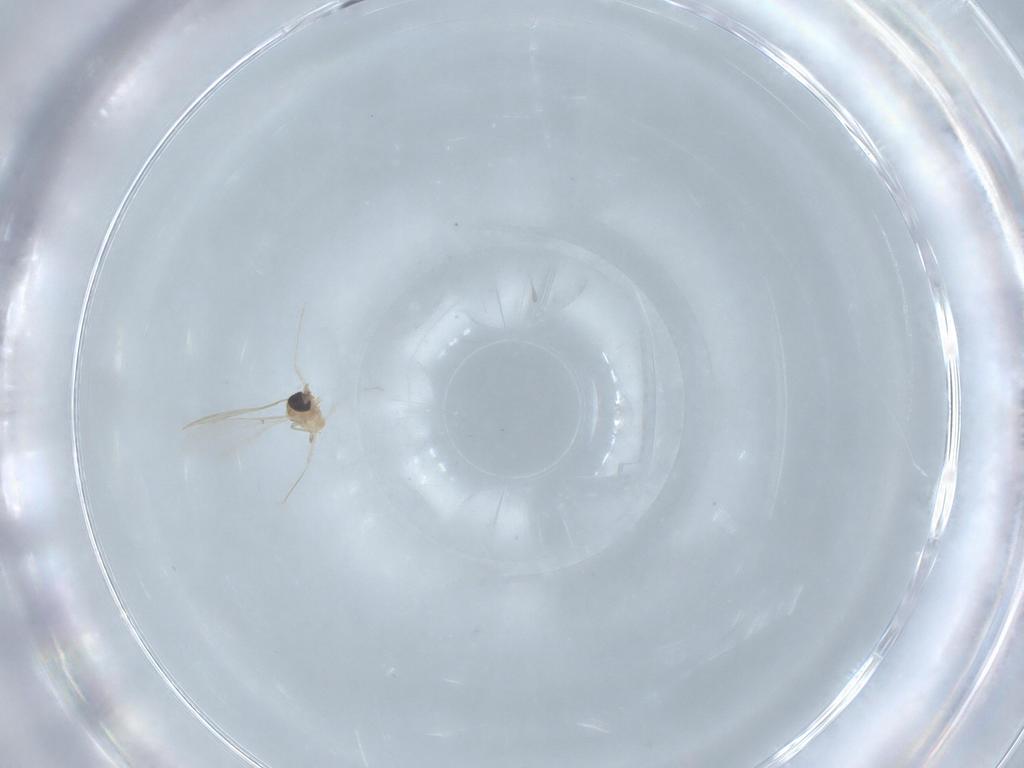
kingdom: Animalia
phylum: Arthropoda
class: Insecta
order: Diptera
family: Cecidomyiidae
